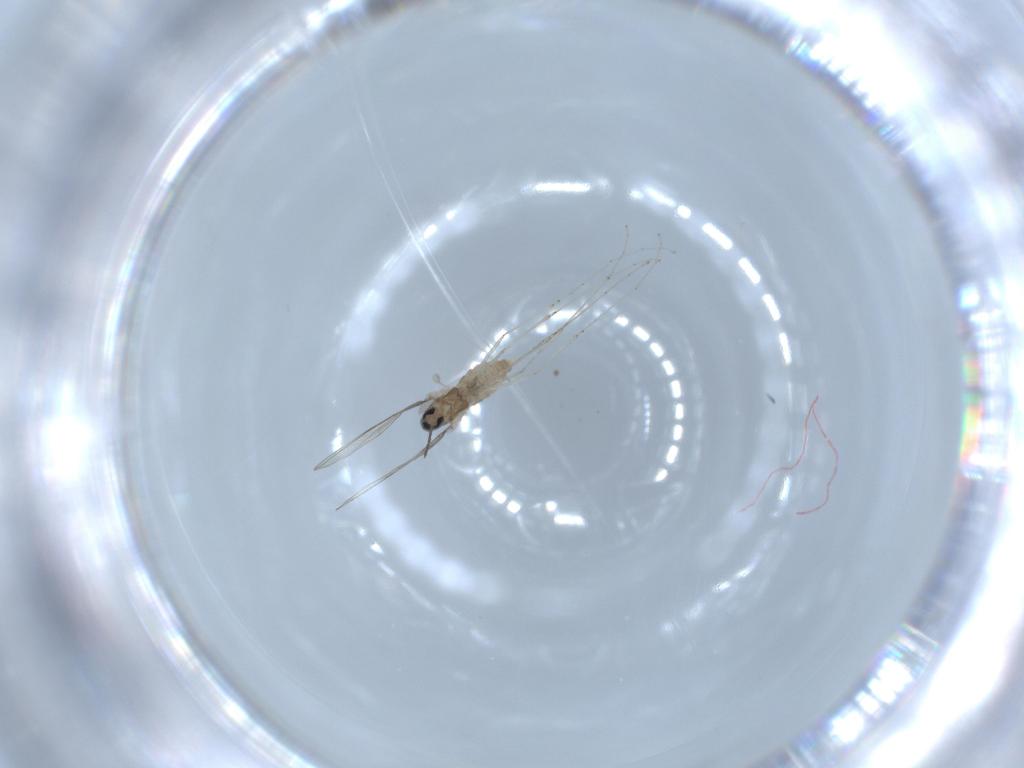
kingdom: Animalia
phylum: Arthropoda
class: Insecta
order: Diptera
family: Cecidomyiidae
